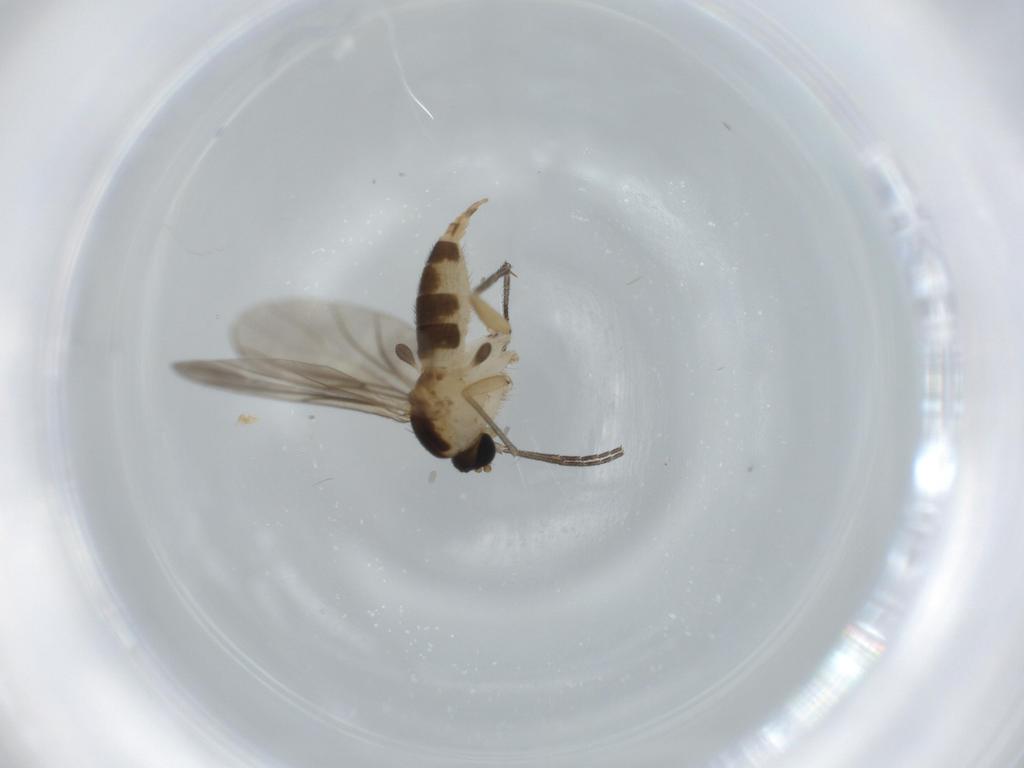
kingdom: Animalia
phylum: Arthropoda
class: Insecta
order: Diptera
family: Sciaridae
